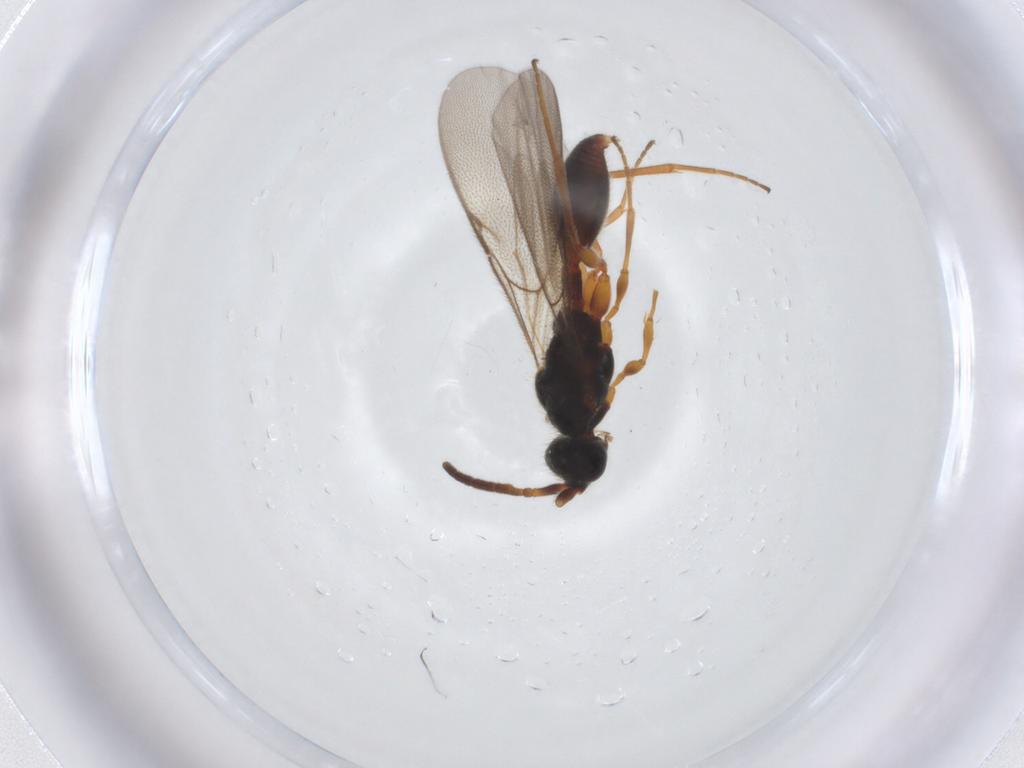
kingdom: Animalia
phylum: Arthropoda
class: Insecta
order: Hymenoptera
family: Diapriidae
